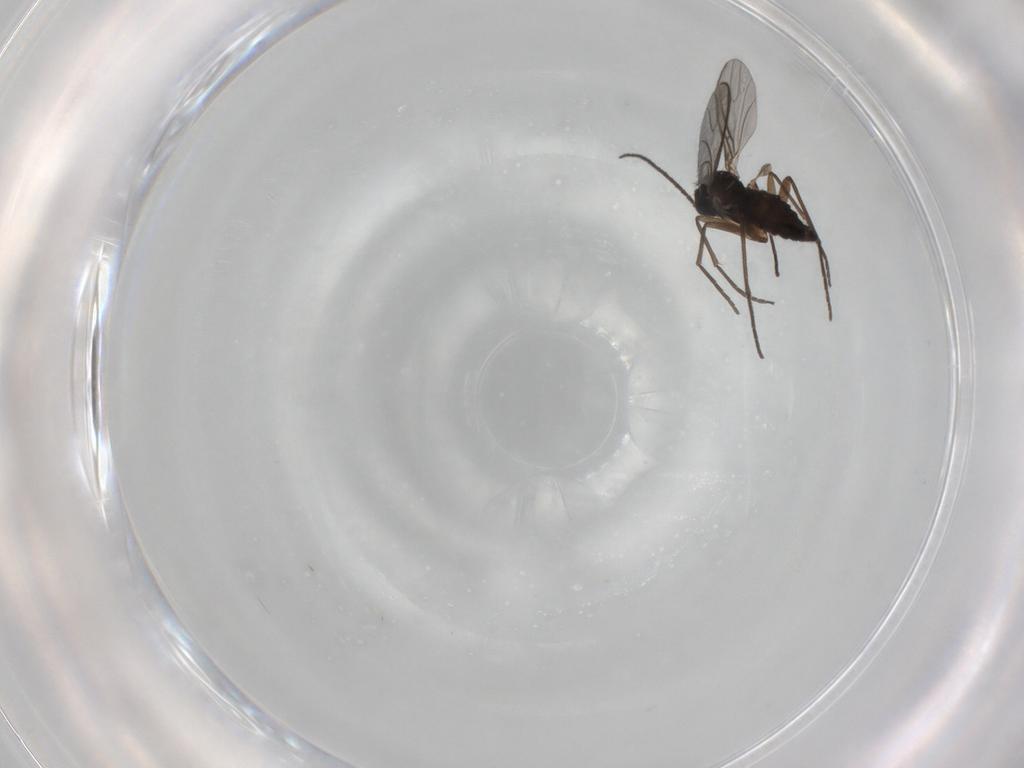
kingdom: Animalia
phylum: Arthropoda
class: Insecta
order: Diptera
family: Sciaridae
